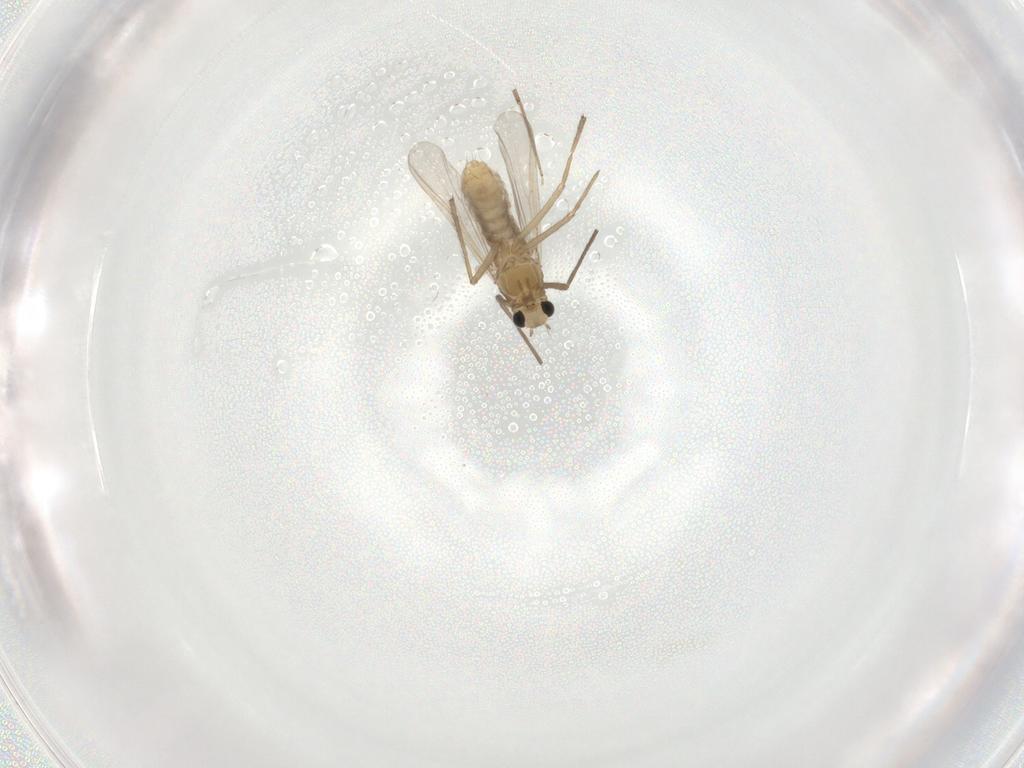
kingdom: Animalia
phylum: Arthropoda
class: Insecta
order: Diptera
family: Chironomidae
